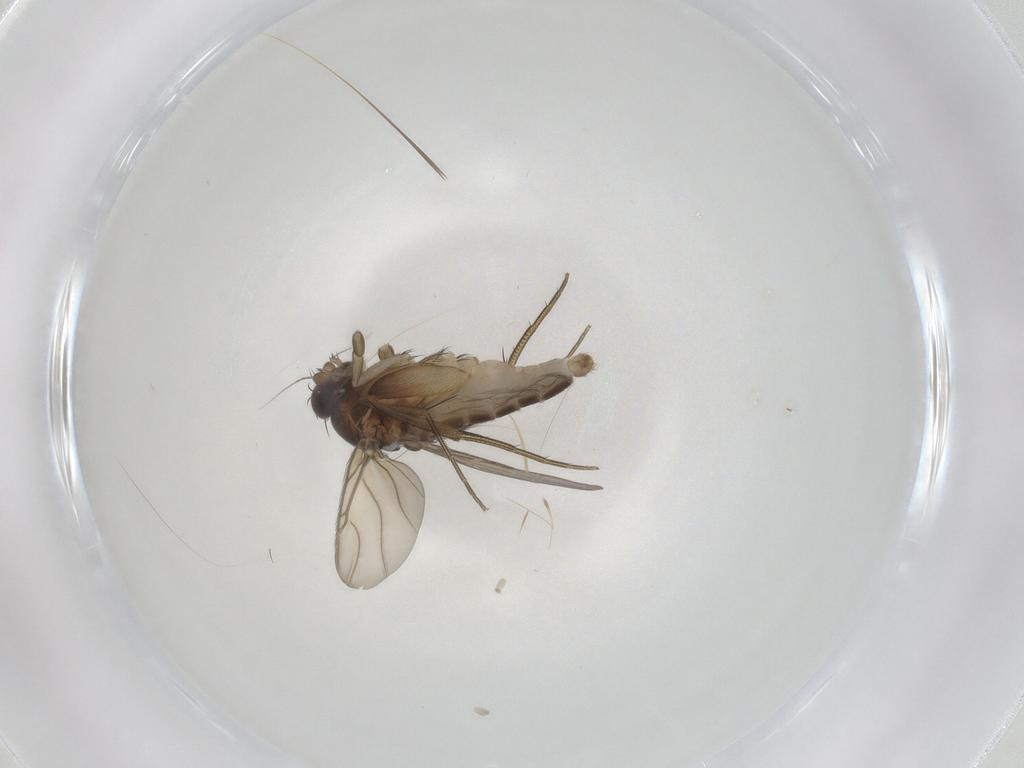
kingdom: Animalia
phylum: Arthropoda
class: Insecta
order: Diptera
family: Phoridae
